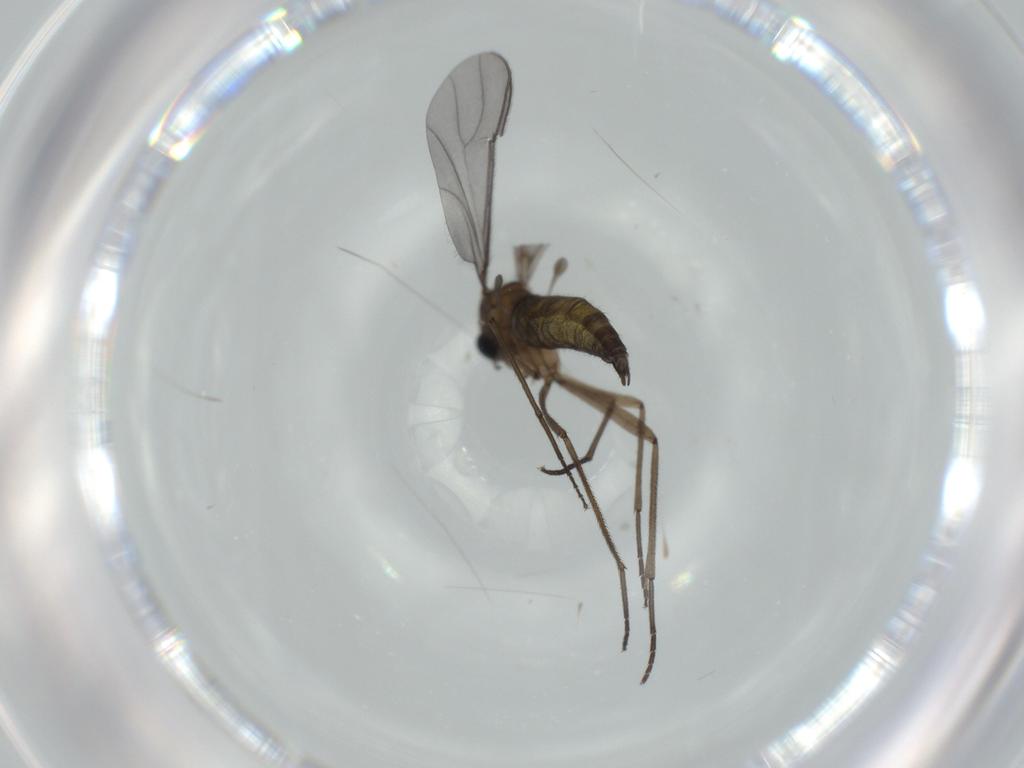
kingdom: Animalia
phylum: Arthropoda
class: Insecta
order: Diptera
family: Sciaridae
